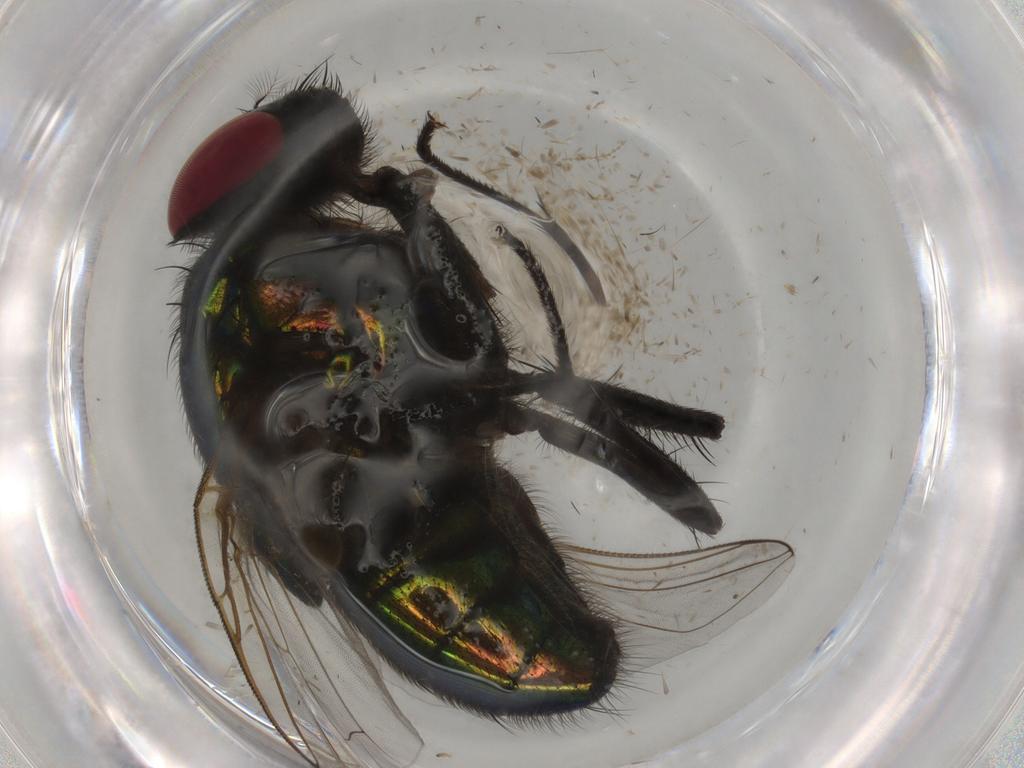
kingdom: Animalia
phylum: Arthropoda
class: Insecta
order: Diptera
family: Muscidae
